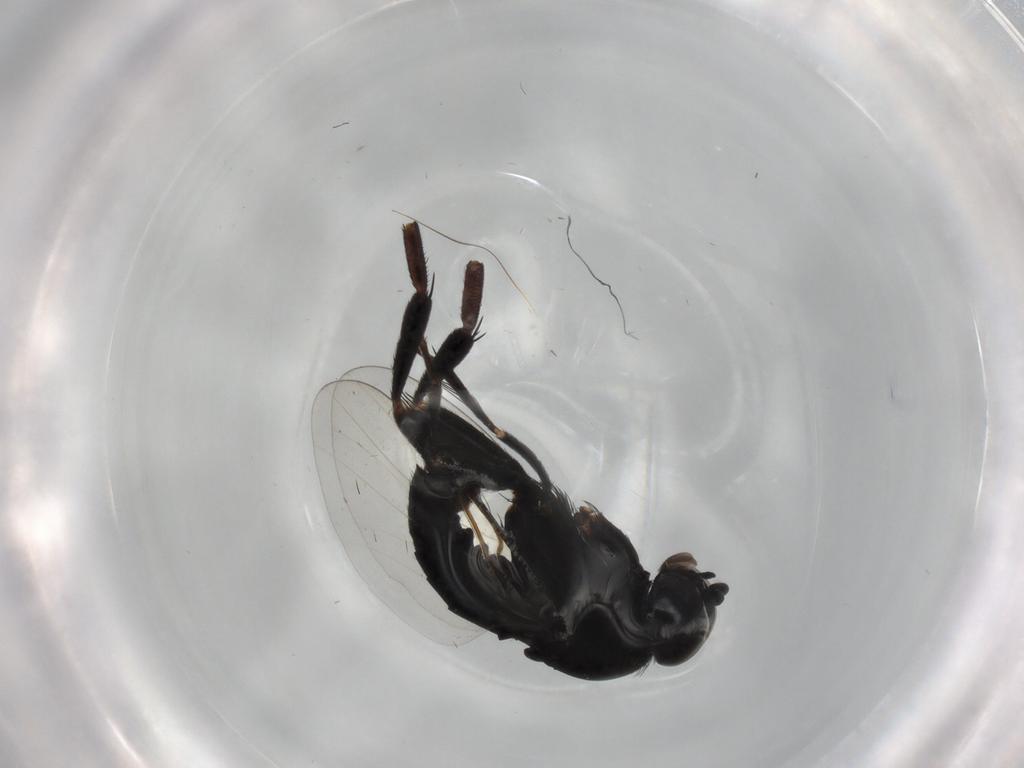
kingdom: Animalia
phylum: Arthropoda
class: Insecta
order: Diptera
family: Phoridae
